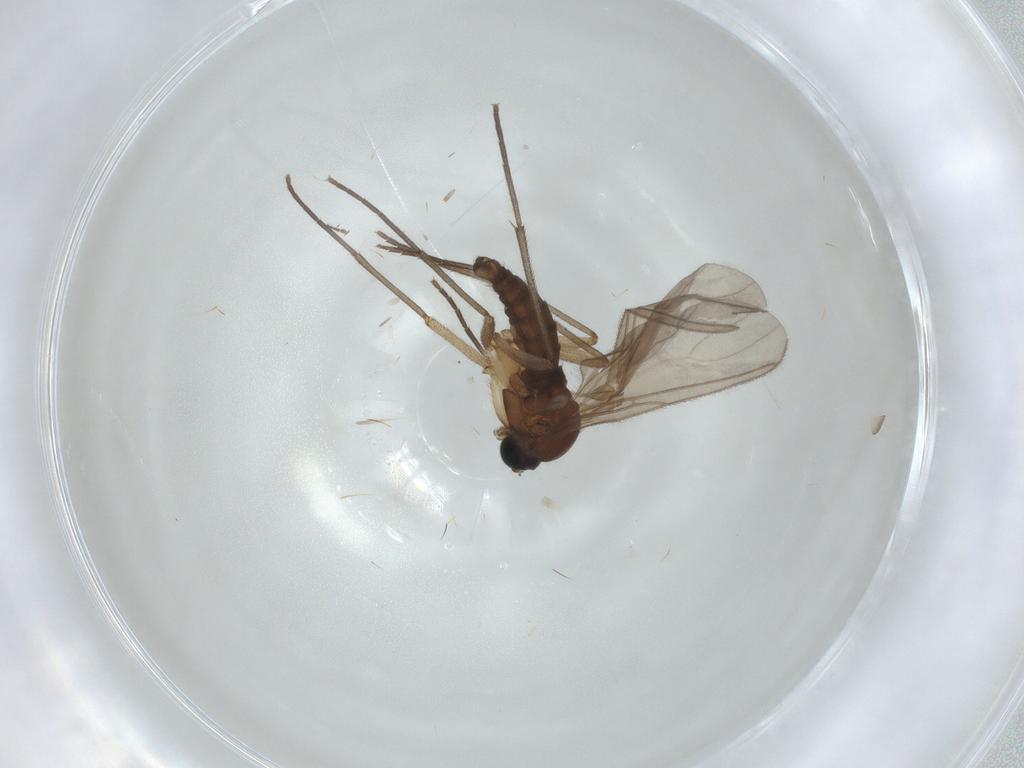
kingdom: Animalia
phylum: Arthropoda
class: Insecta
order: Diptera
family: Sciaridae
